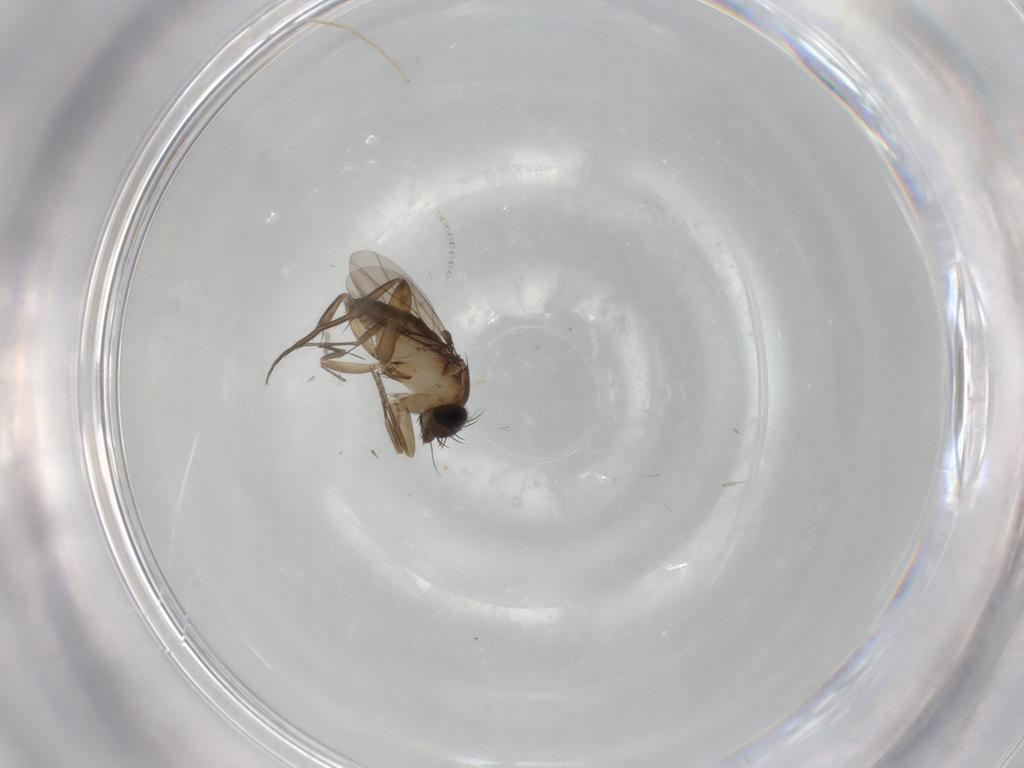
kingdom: Animalia
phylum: Arthropoda
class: Insecta
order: Diptera
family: Phoridae
